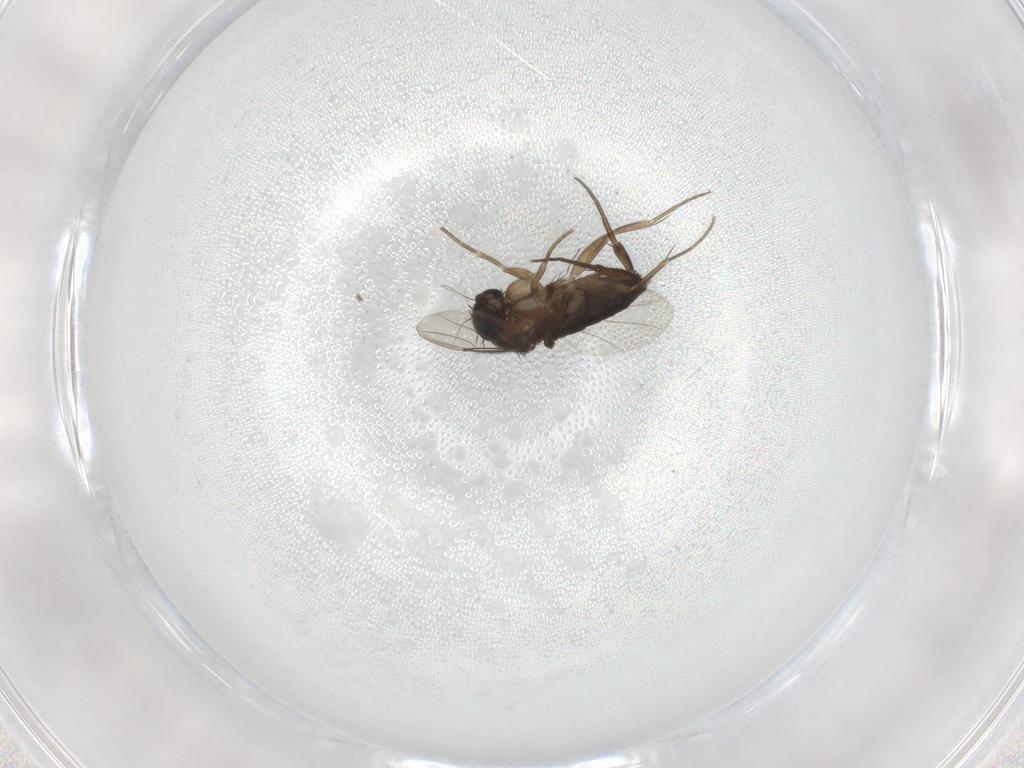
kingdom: Animalia
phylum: Arthropoda
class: Insecta
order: Diptera
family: Phoridae
